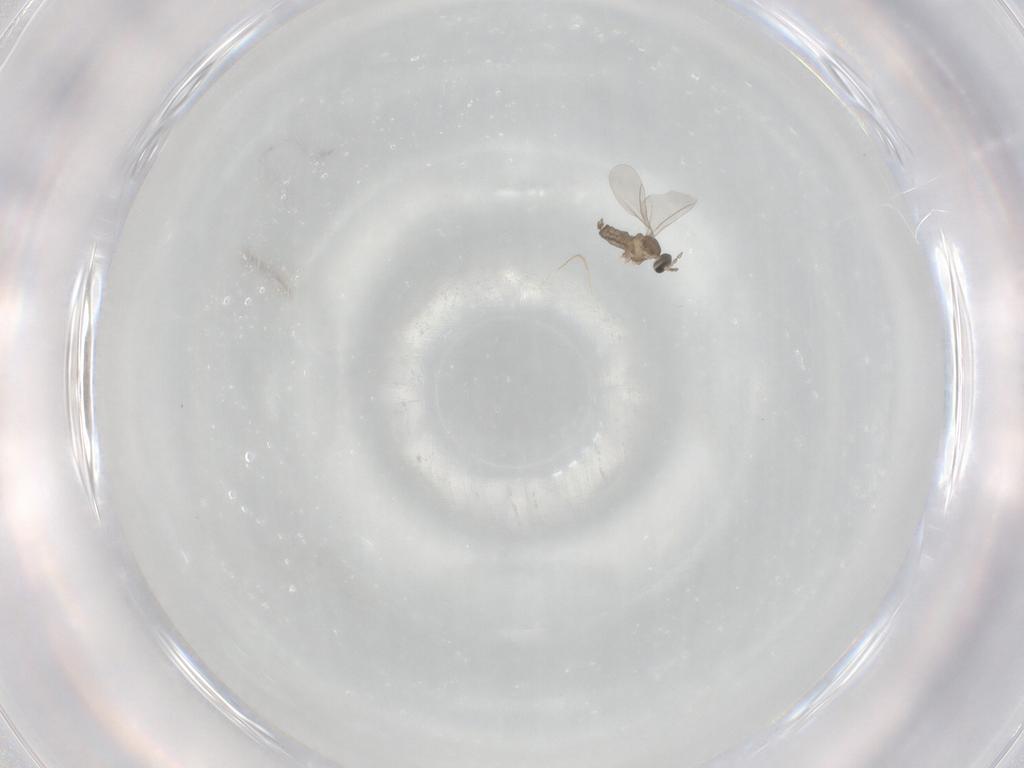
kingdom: Animalia
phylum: Arthropoda
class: Insecta
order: Diptera
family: Cecidomyiidae
